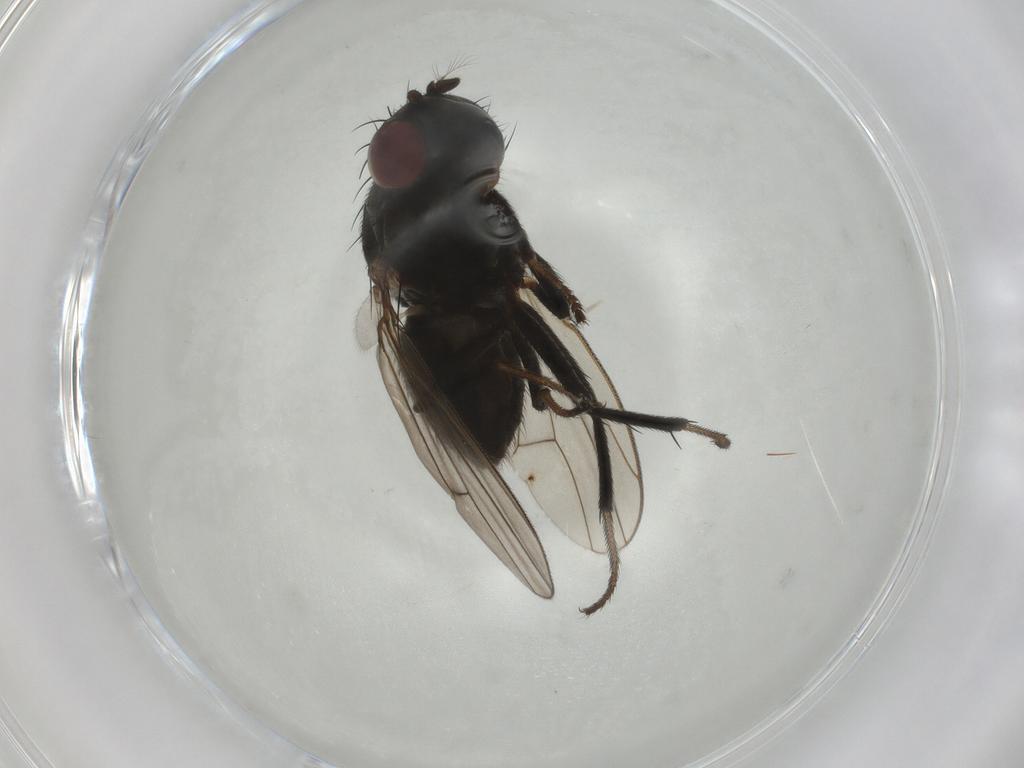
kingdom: Animalia
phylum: Arthropoda
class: Insecta
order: Diptera
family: Ephydridae
